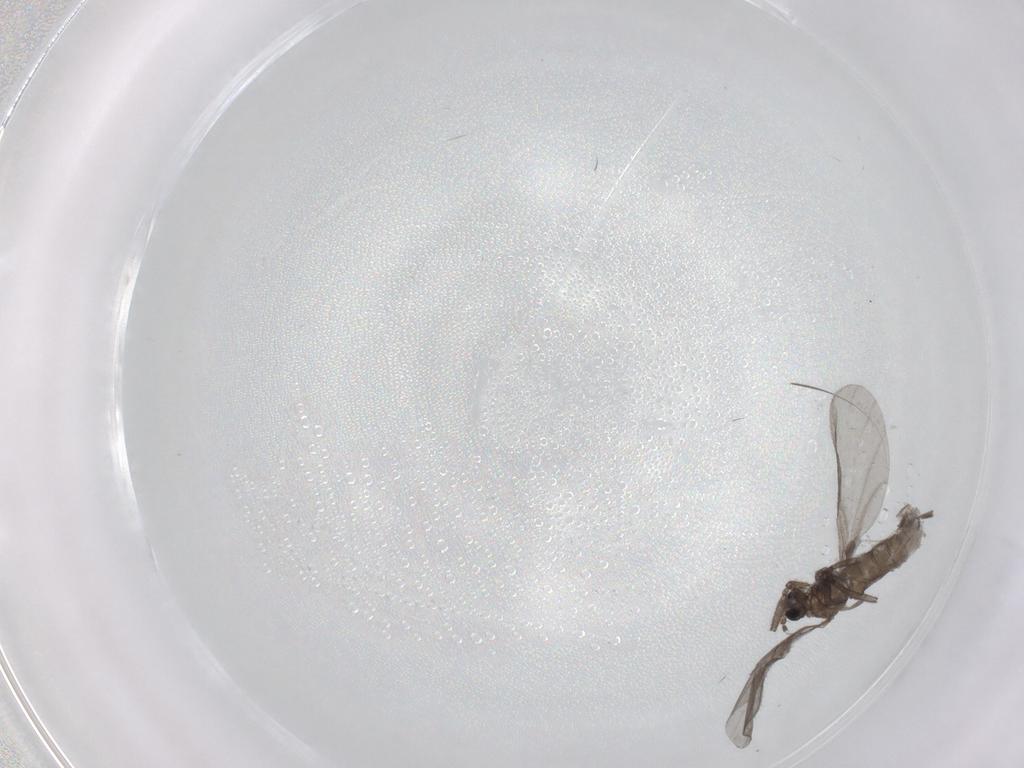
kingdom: Animalia
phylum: Arthropoda
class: Insecta
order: Diptera
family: Sciaridae
